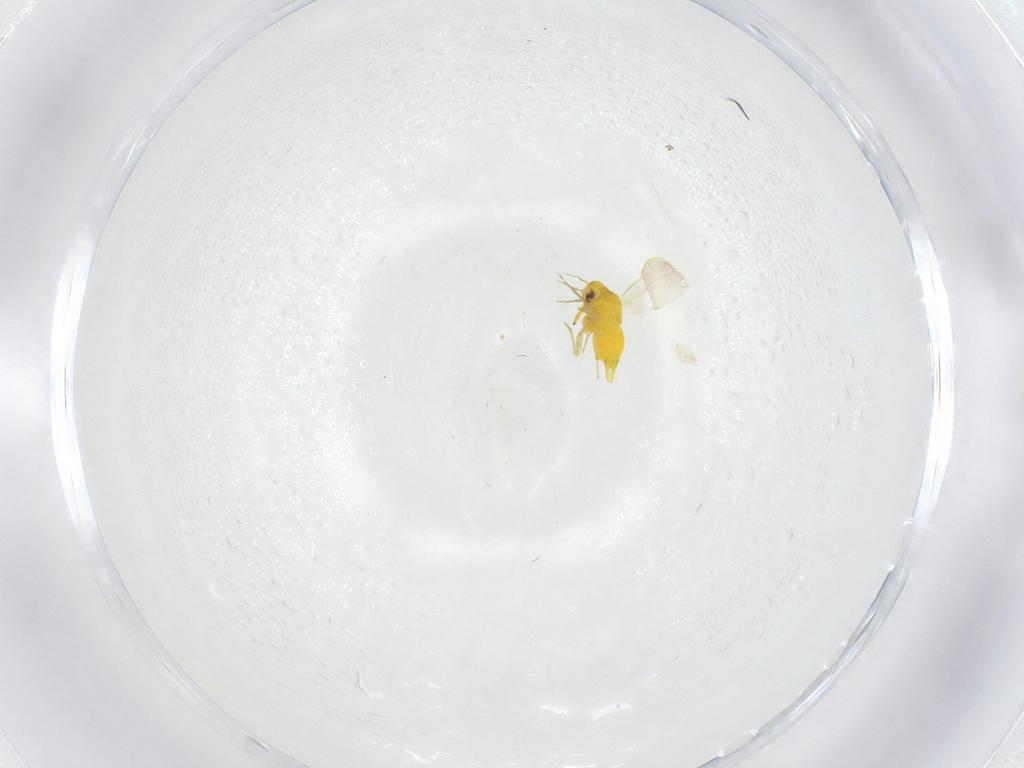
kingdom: Animalia
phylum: Arthropoda
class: Insecta
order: Hemiptera
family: Aleyrodidae
